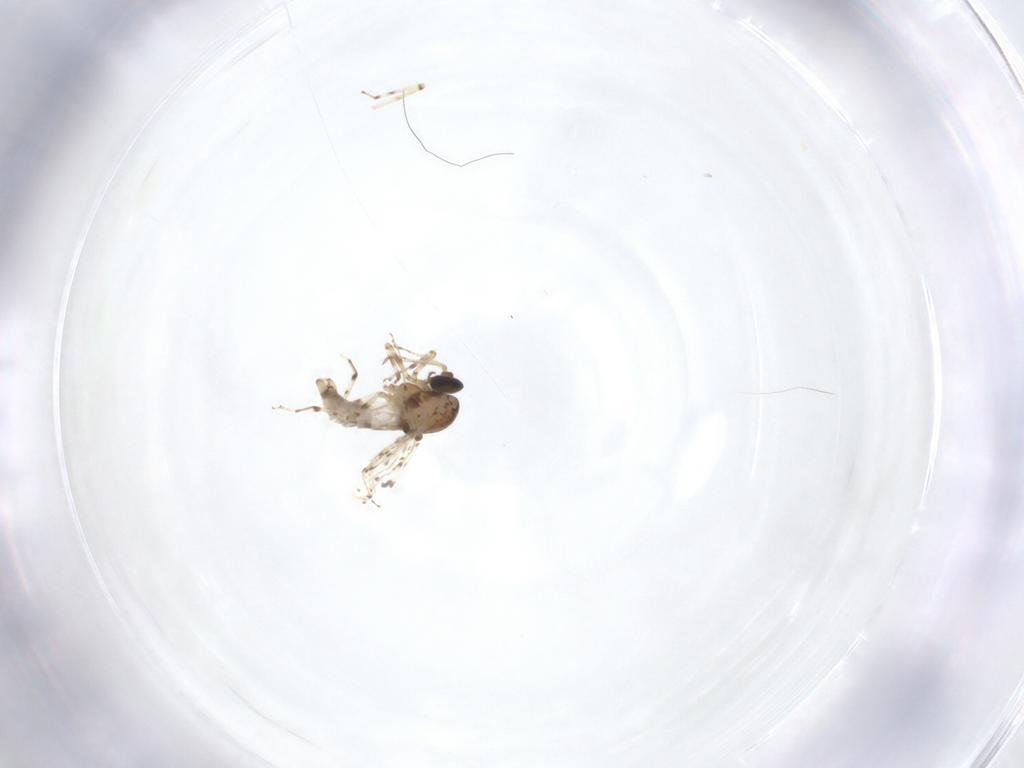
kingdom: Animalia
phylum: Arthropoda
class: Insecta
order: Diptera
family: Ceratopogonidae
